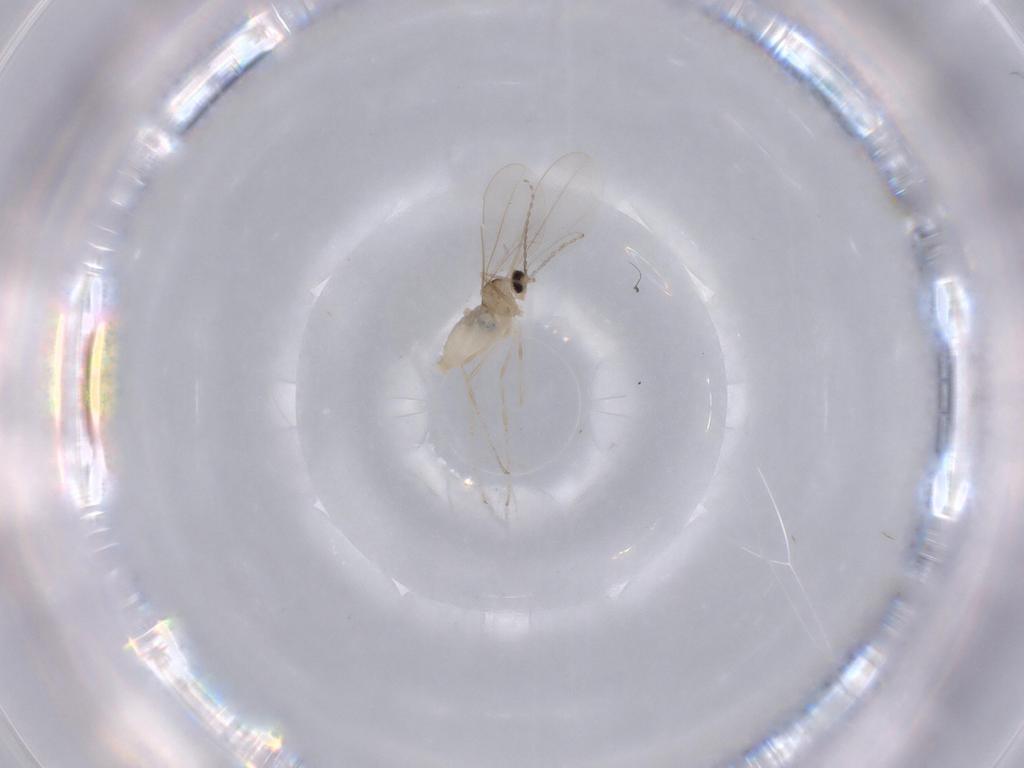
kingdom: Animalia
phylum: Arthropoda
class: Insecta
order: Diptera
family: Cecidomyiidae
